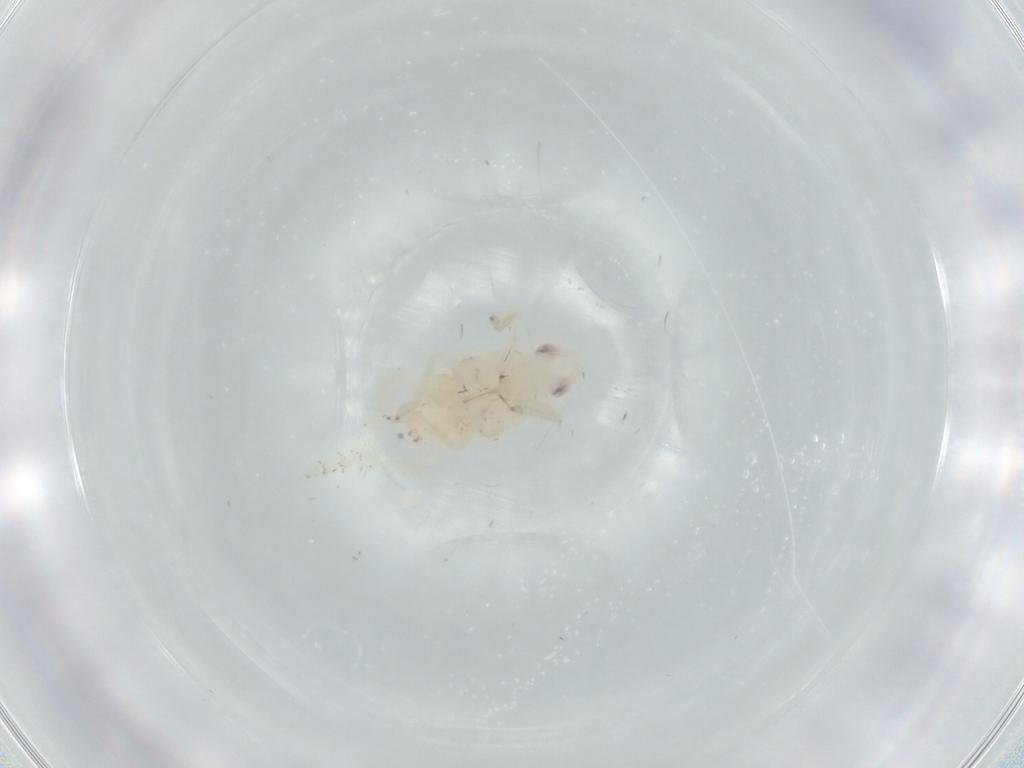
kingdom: Animalia
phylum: Arthropoda
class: Insecta
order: Hemiptera
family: Tropiduchidae
